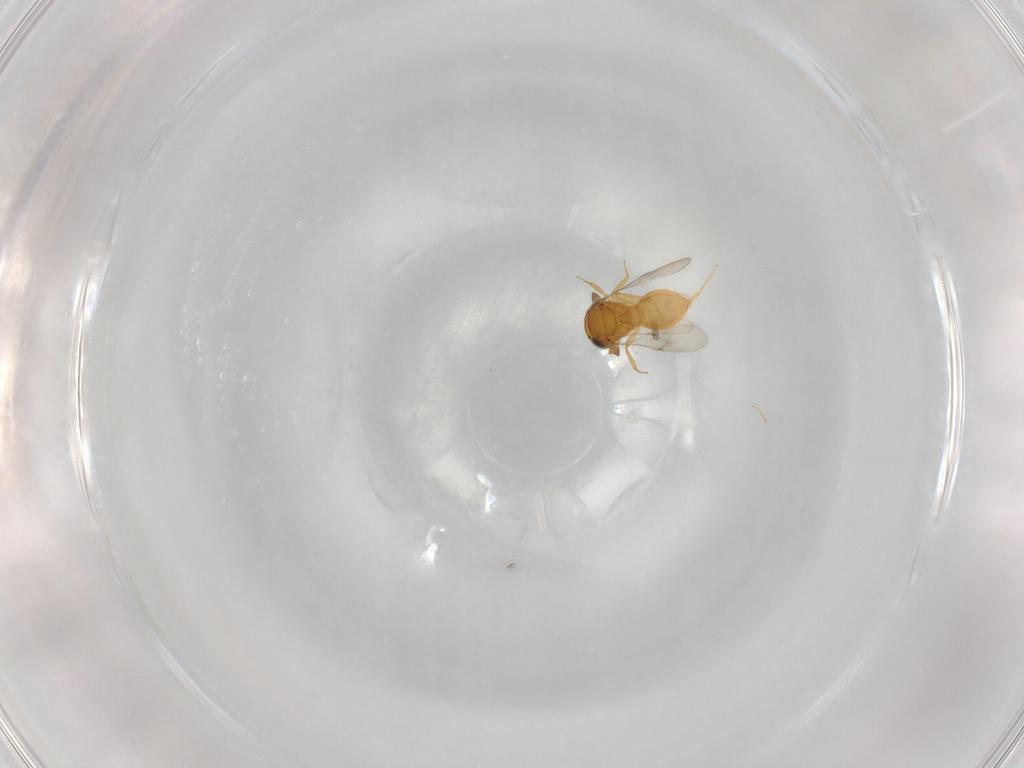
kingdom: Animalia
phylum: Arthropoda
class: Insecta
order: Hymenoptera
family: Scelionidae
